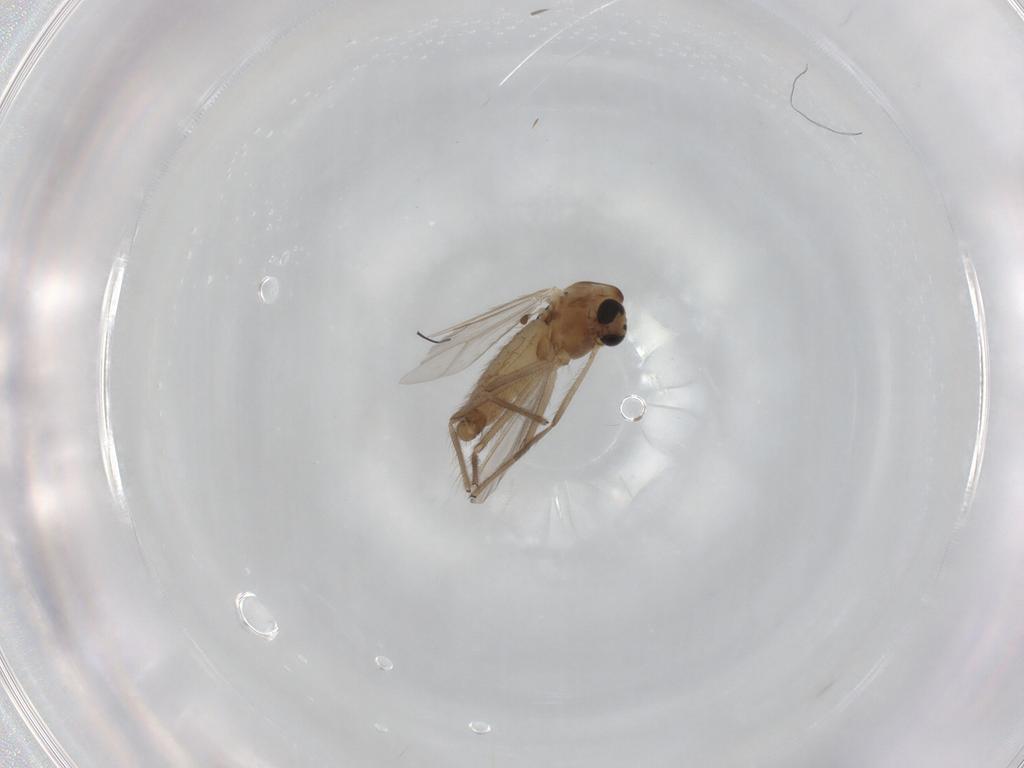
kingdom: Animalia
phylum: Arthropoda
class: Insecta
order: Diptera
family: Chironomidae
